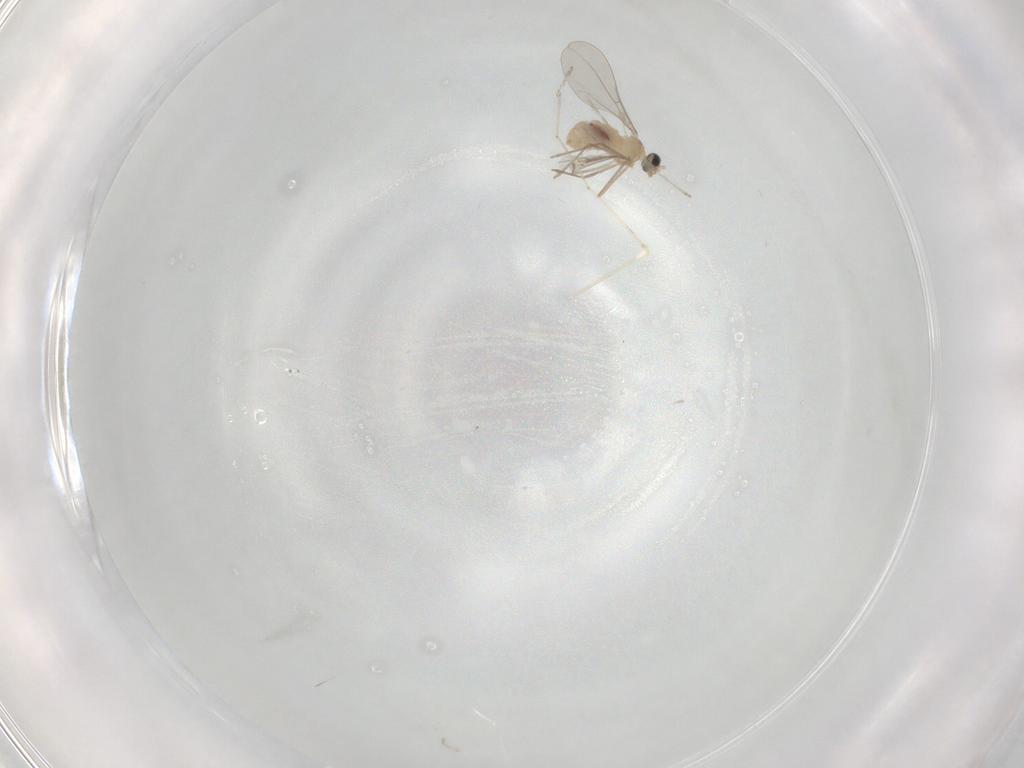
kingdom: Animalia
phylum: Arthropoda
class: Insecta
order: Diptera
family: Cecidomyiidae
